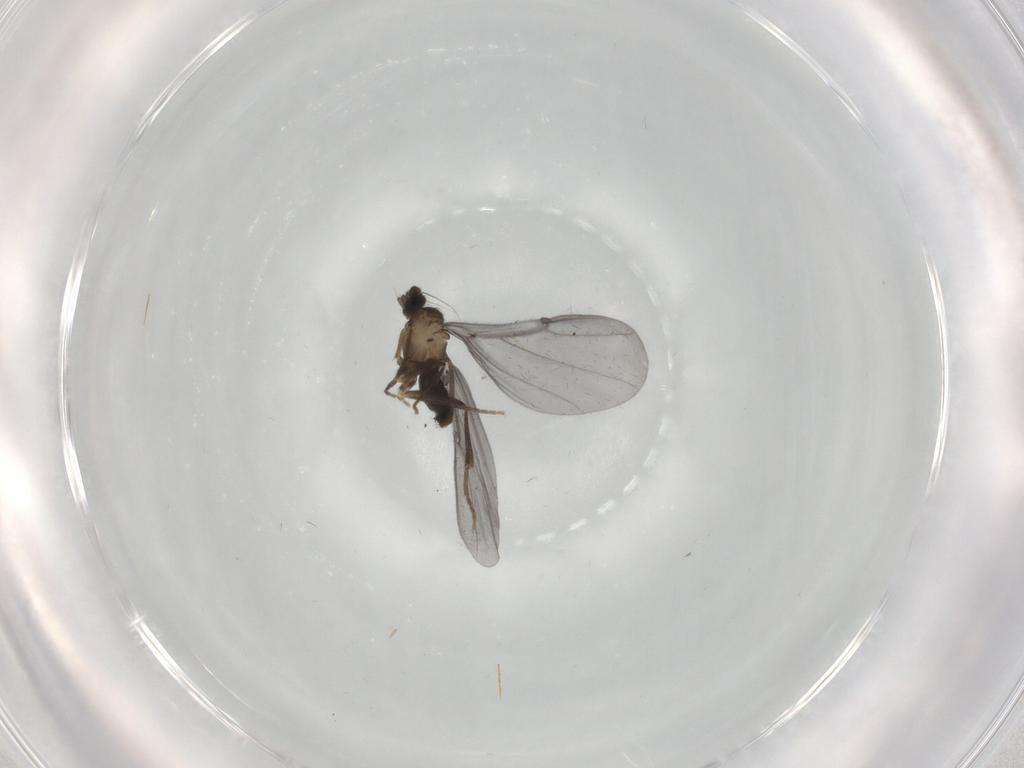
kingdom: Animalia
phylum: Arthropoda
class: Insecta
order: Diptera
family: Phoridae
